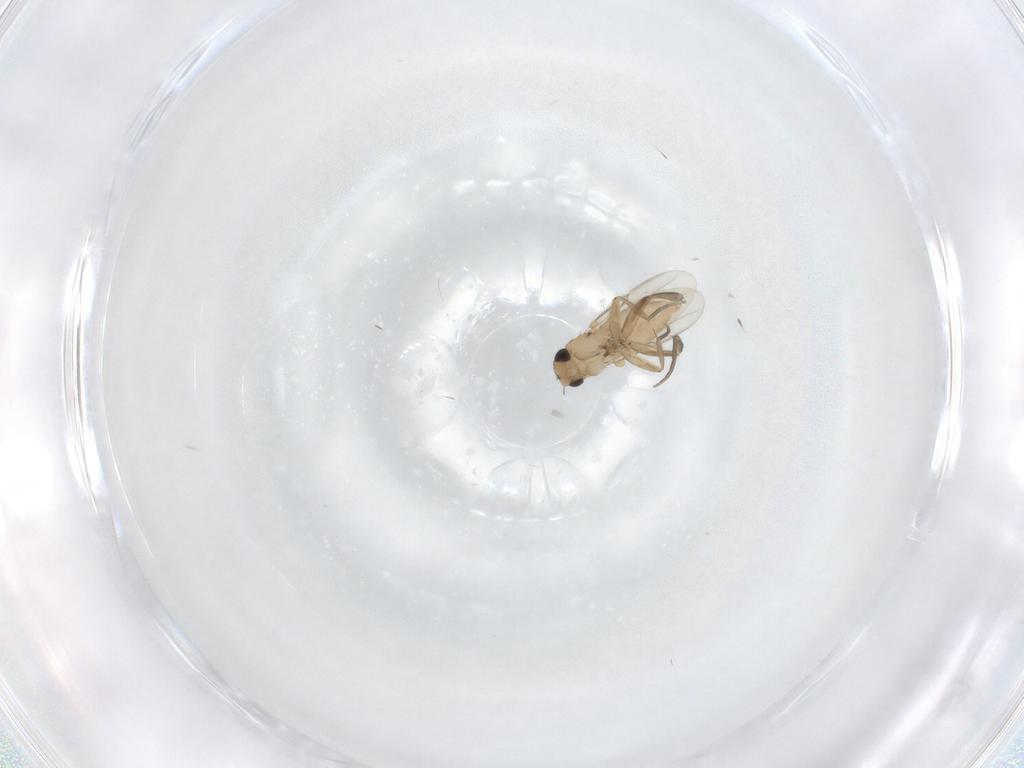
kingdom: Animalia
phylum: Arthropoda
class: Insecta
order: Diptera
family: Phoridae
